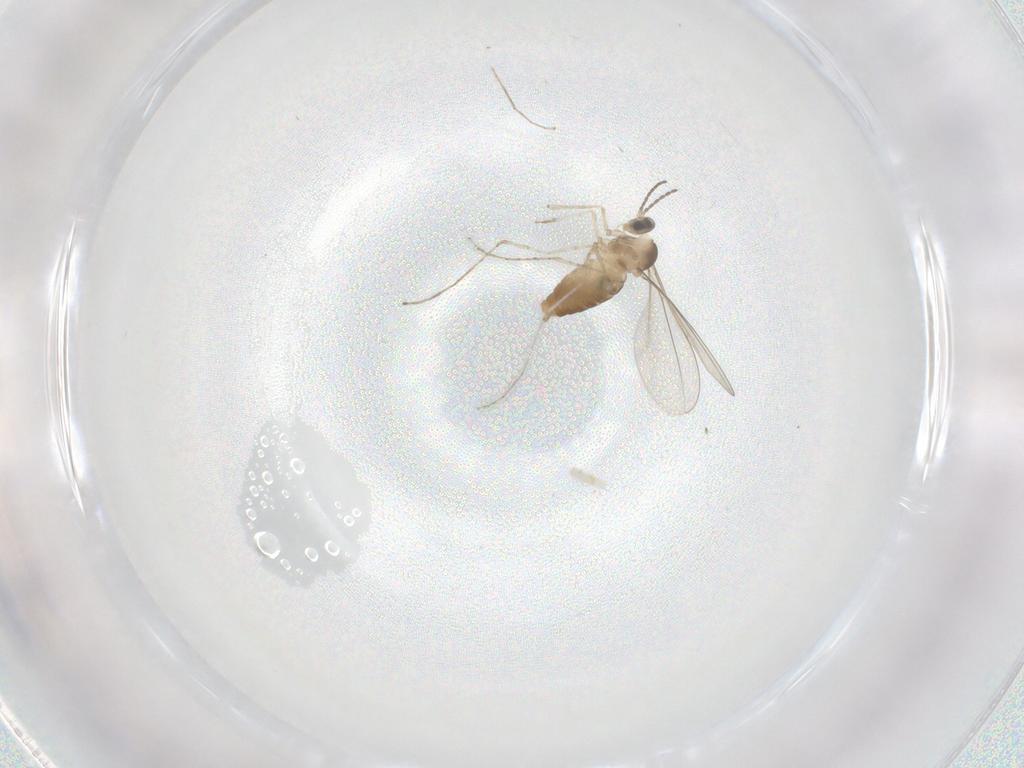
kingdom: Animalia
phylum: Arthropoda
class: Insecta
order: Diptera
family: Cecidomyiidae
